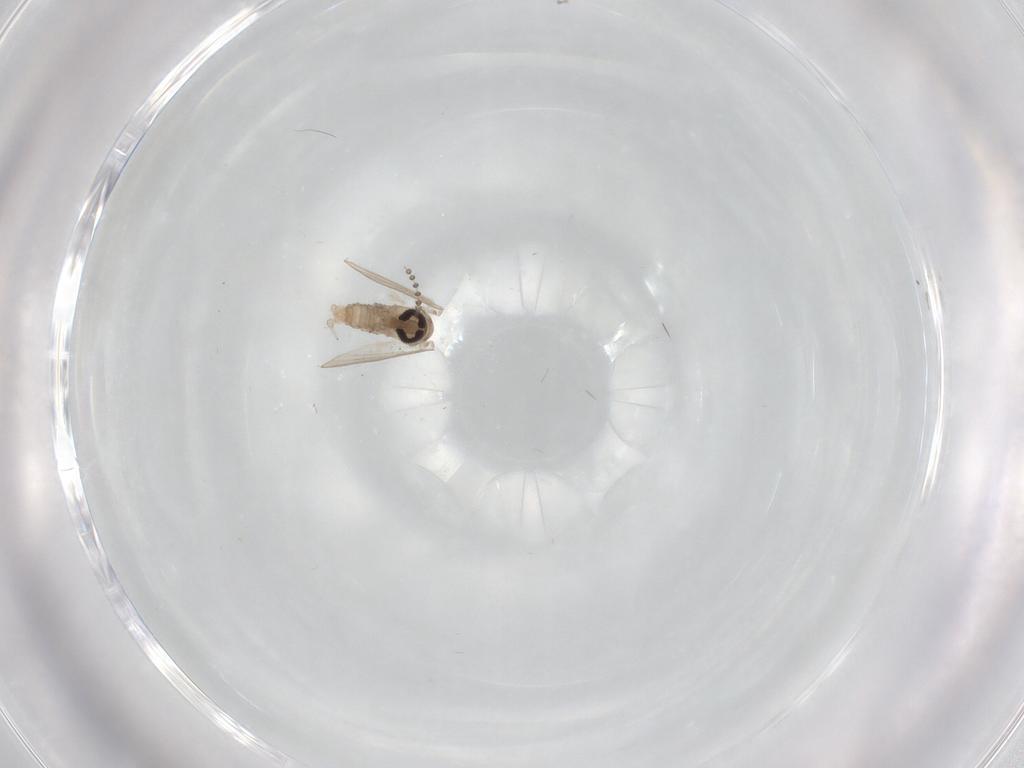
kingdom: Animalia
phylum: Arthropoda
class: Insecta
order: Diptera
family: Psychodidae
